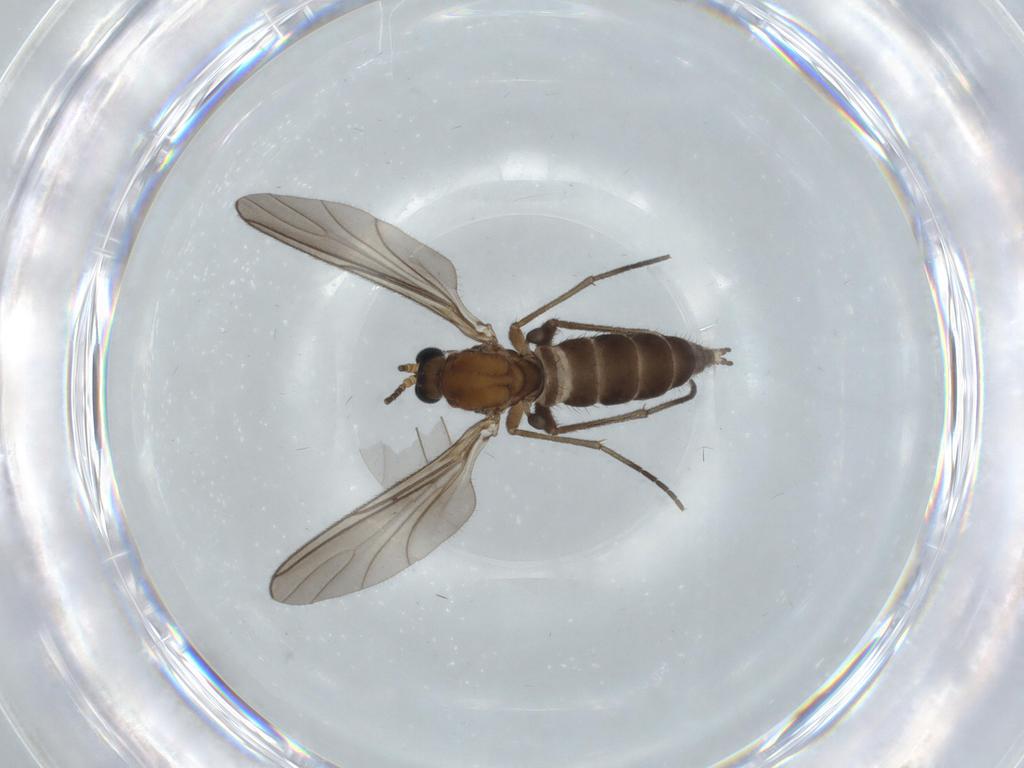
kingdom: Animalia
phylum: Arthropoda
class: Insecta
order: Diptera
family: Sciaridae
